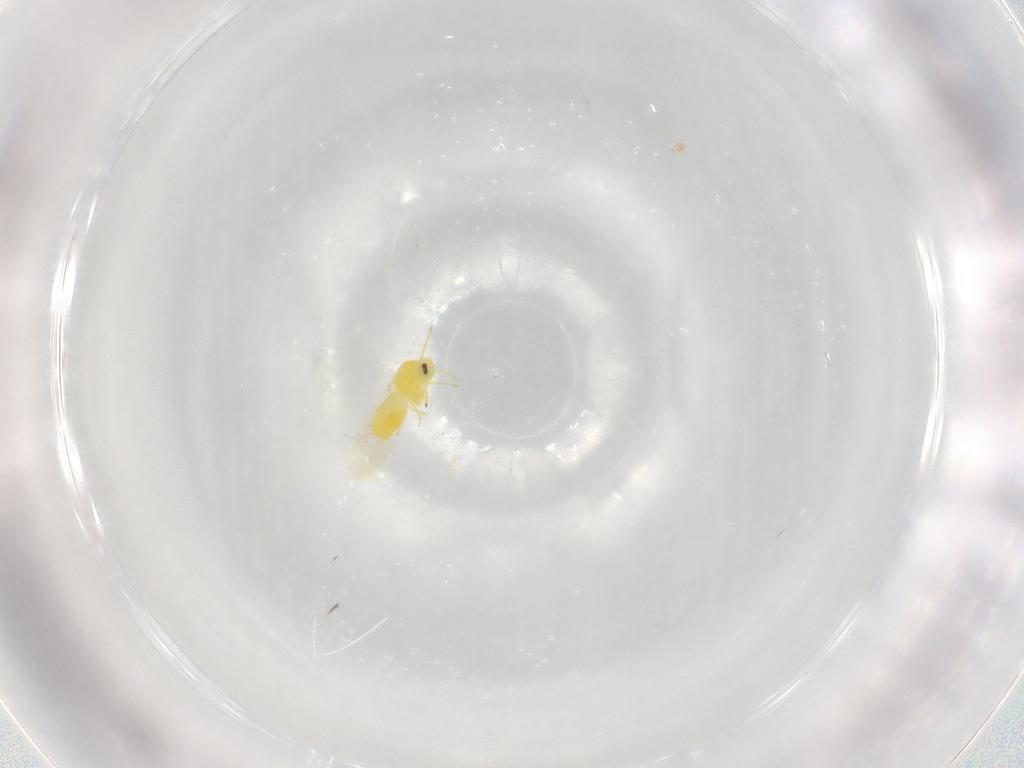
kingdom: Animalia
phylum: Arthropoda
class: Insecta
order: Hemiptera
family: Aleyrodidae
